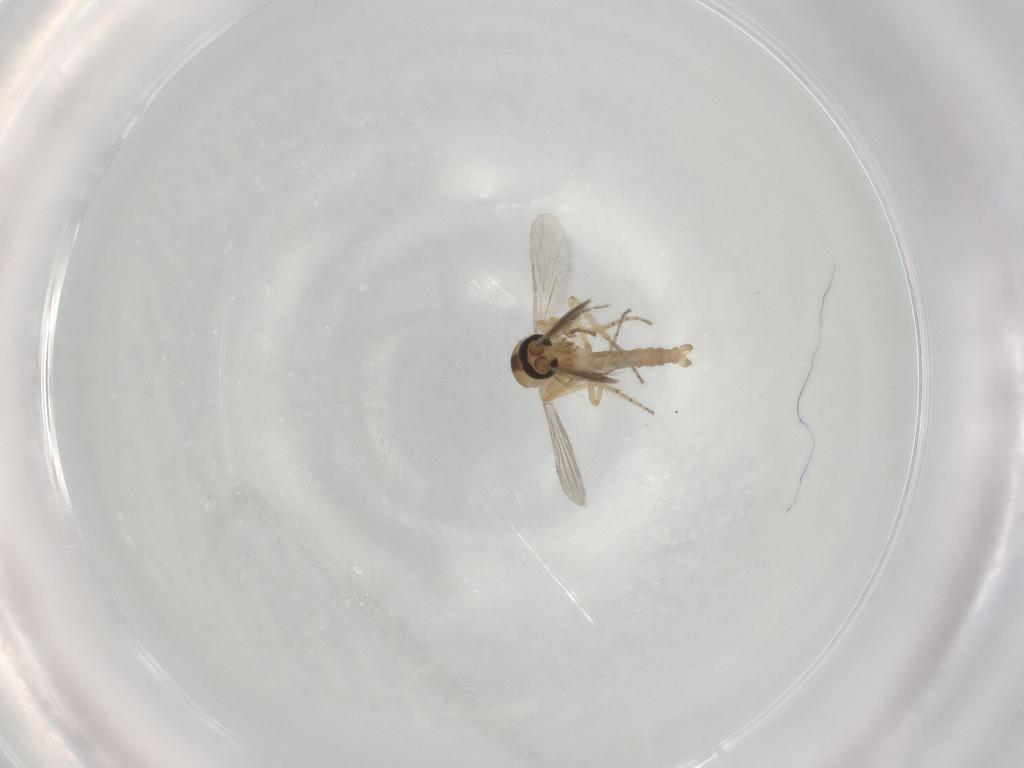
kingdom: Animalia
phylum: Arthropoda
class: Insecta
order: Diptera
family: Ceratopogonidae
